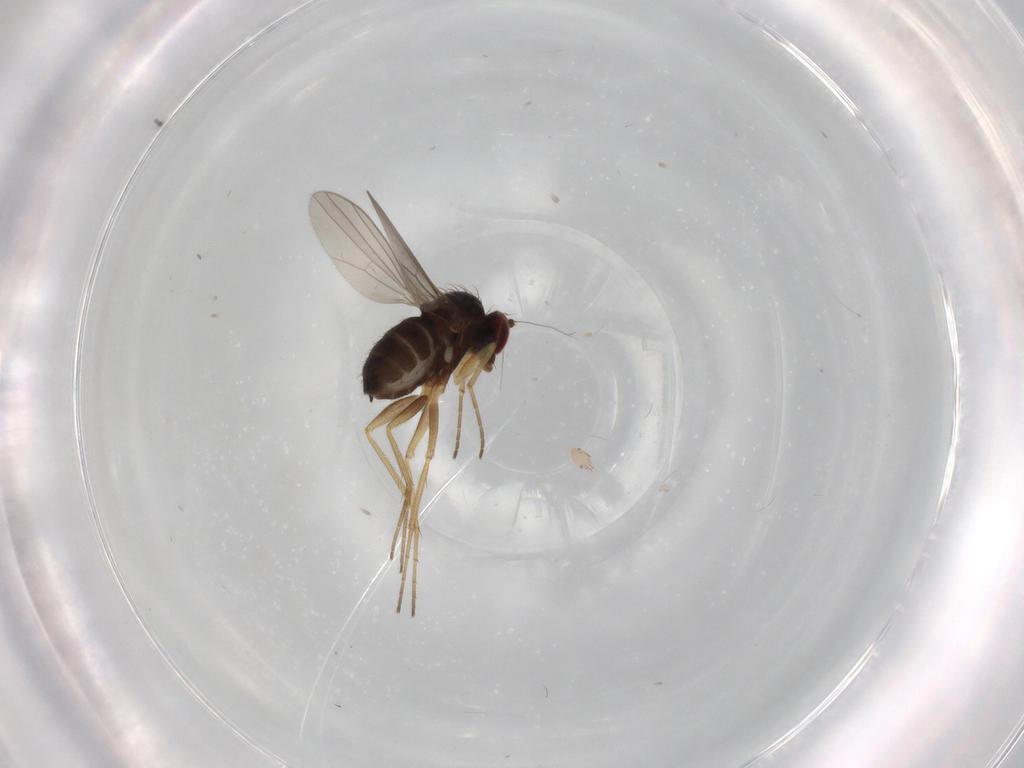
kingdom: Animalia
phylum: Arthropoda
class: Insecta
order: Diptera
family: Dolichopodidae
